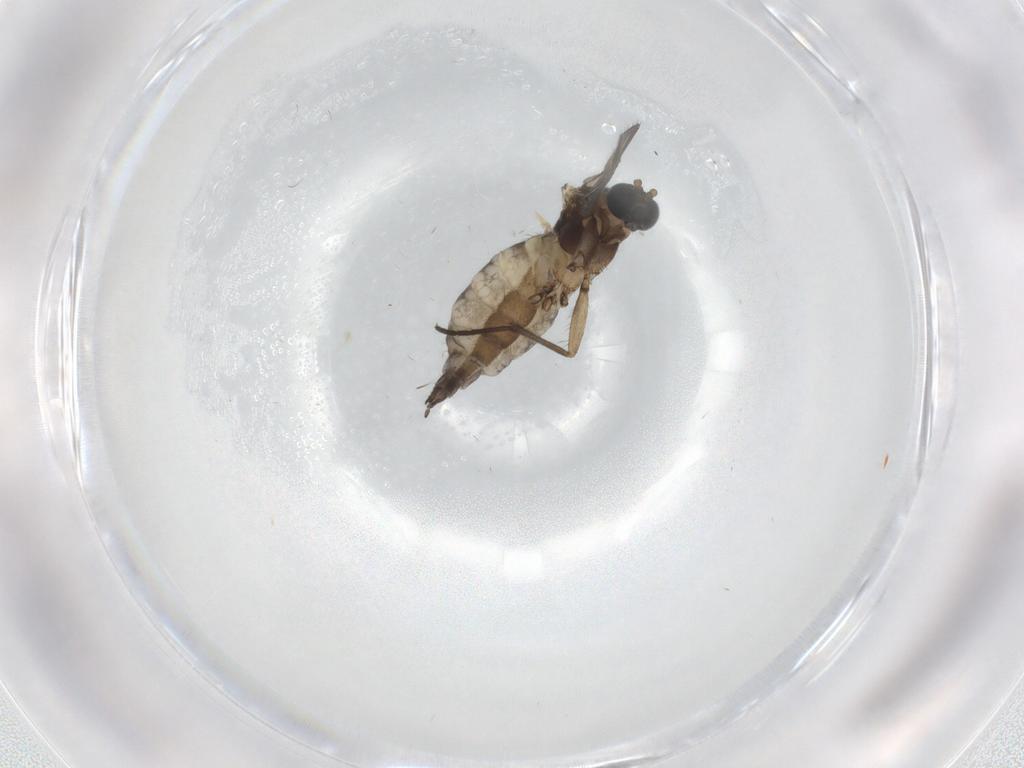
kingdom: Animalia
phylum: Arthropoda
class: Insecta
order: Diptera
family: Sciaridae
